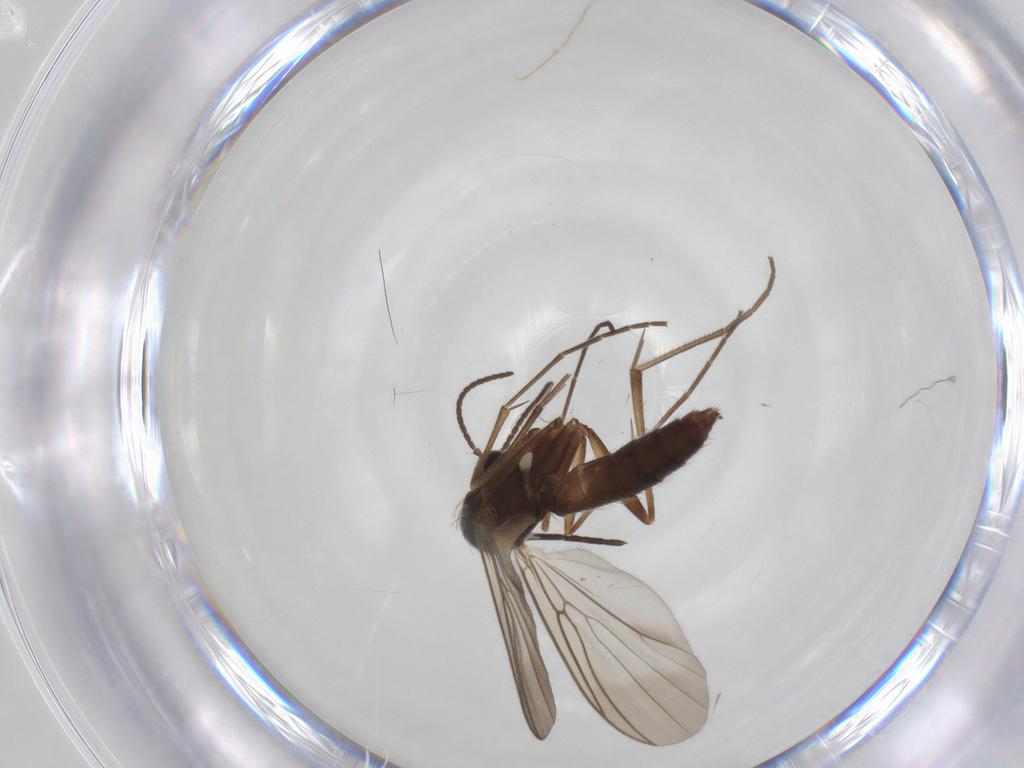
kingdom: Animalia
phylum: Arthropoda
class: Insecta
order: Diptera
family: Mycetophilidae
